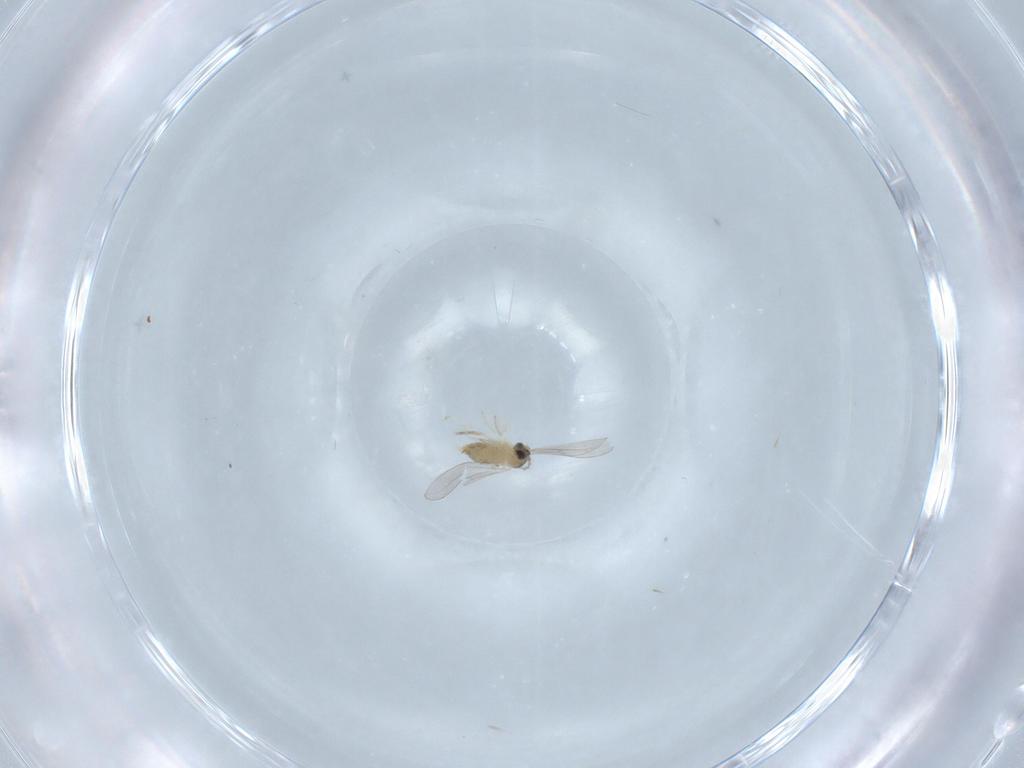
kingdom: Animalia
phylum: Arthropoda
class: Insecta
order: Diptera
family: Cecidomyiidae
